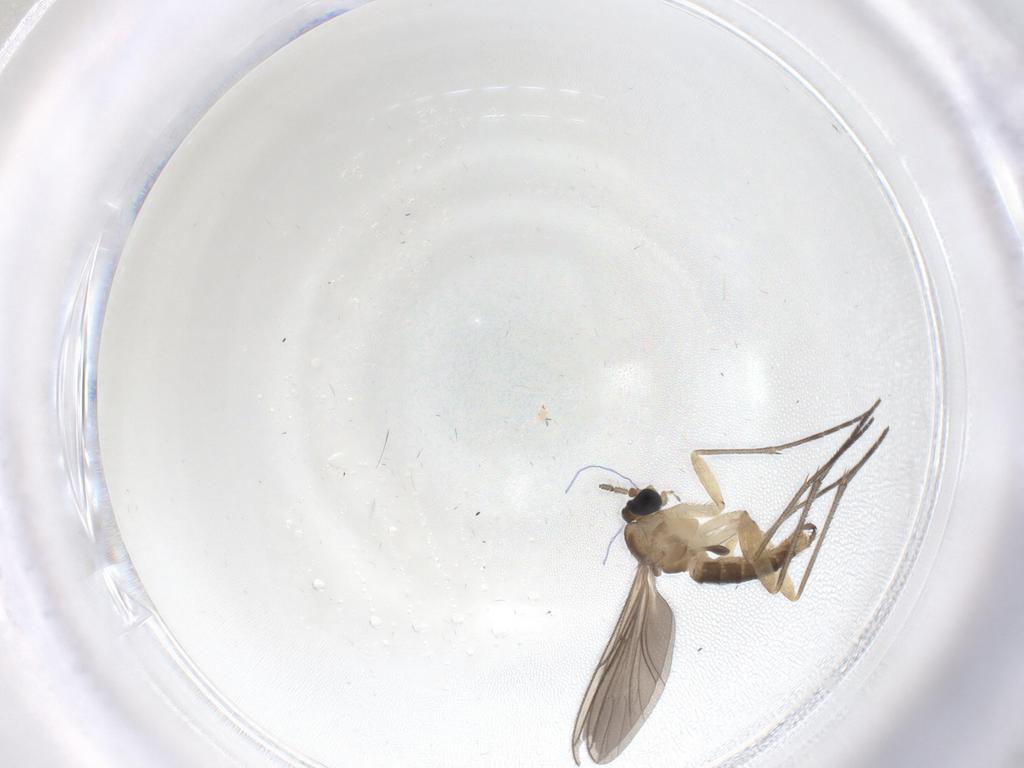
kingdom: Animalia
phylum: Arthropoda
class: Insecta
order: Diptera
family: Sciaridae
